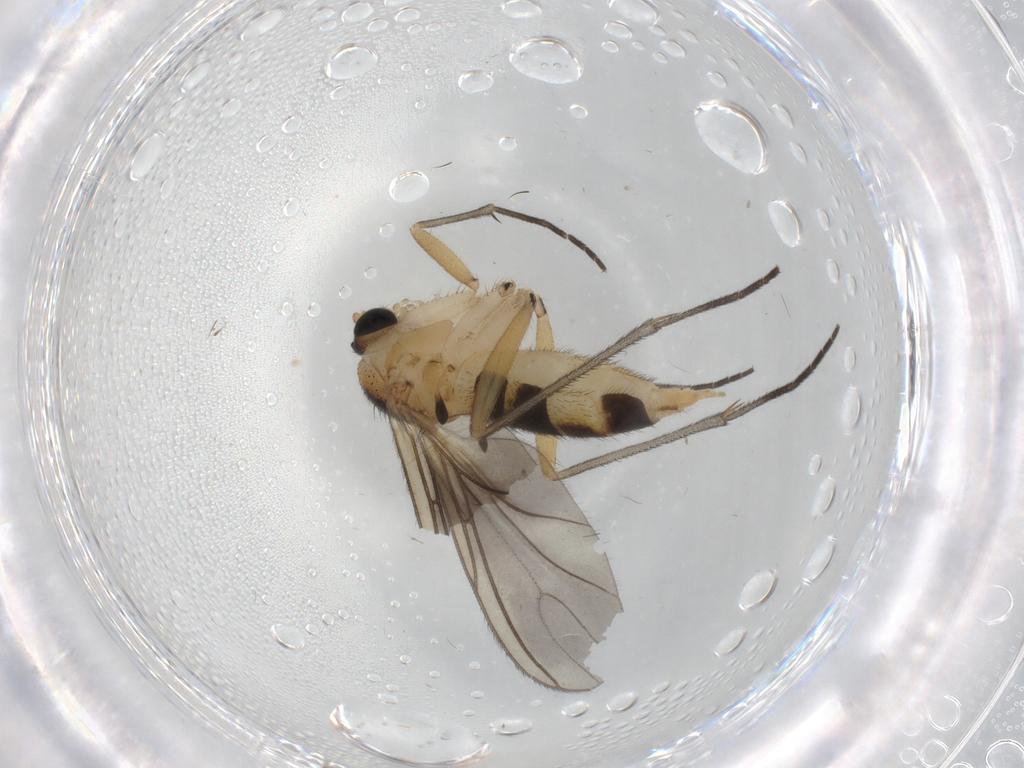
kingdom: Animalia
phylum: Arthropoda
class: Insecta
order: Diptera
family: Sciaridae
